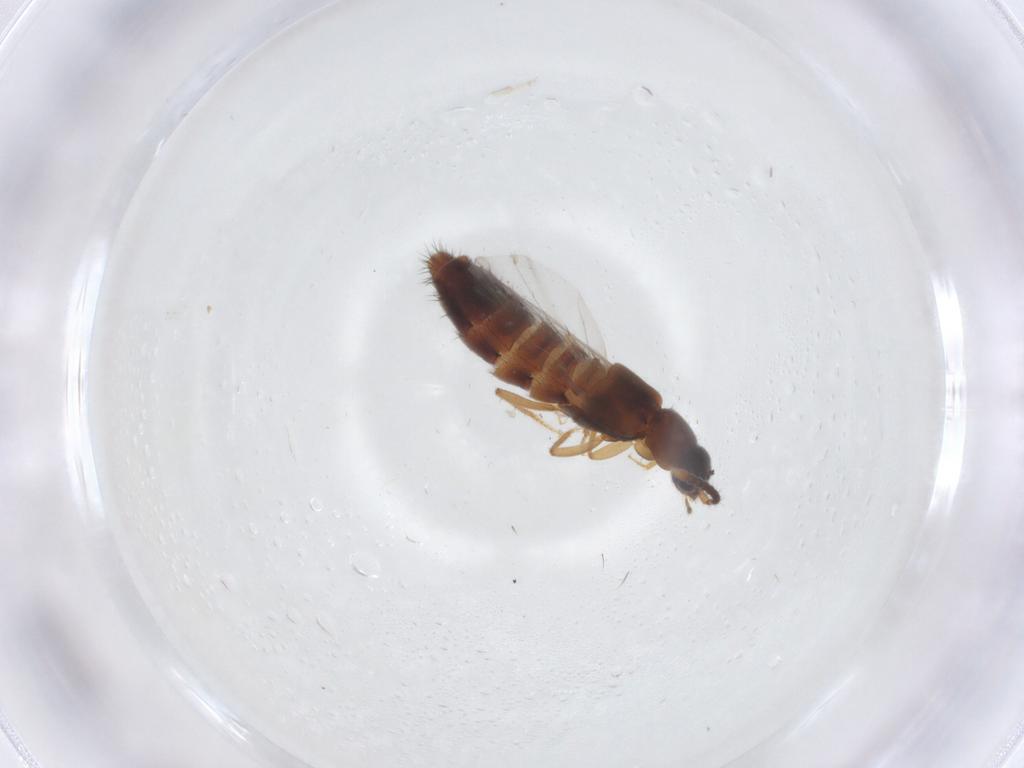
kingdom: Animalia
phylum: Arthropoda
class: Insecta
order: Coleoptera
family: Staphylinidae
